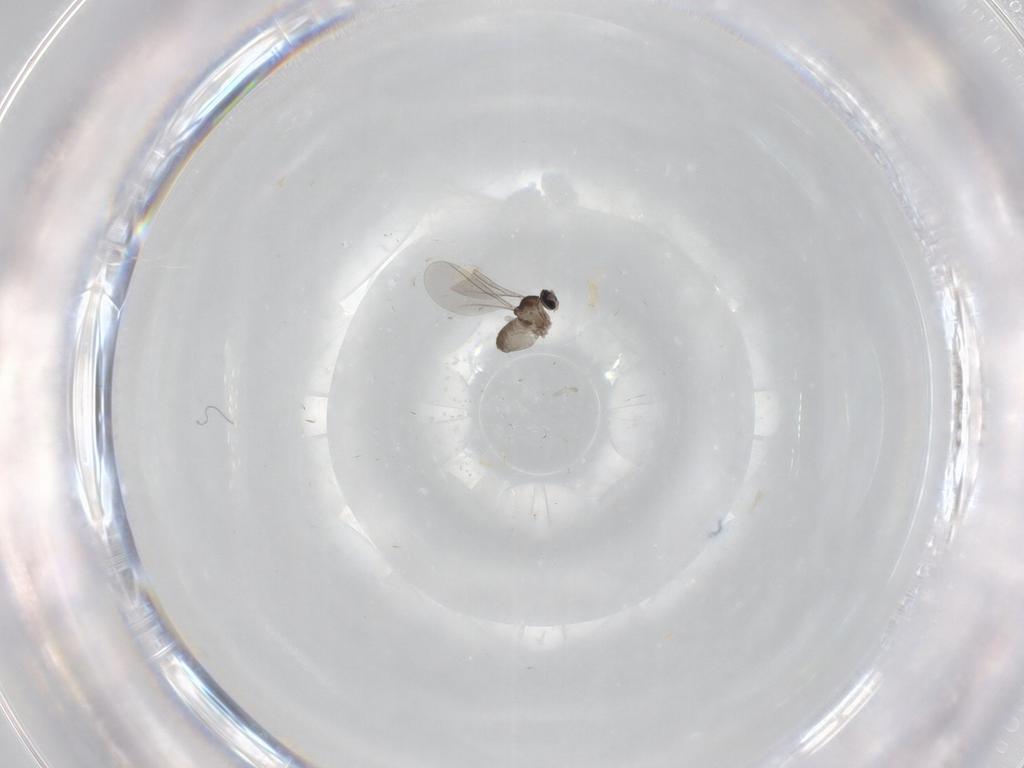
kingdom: Animalia
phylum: Arthropoda
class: Insecta
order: Diptera
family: Cecidomyiidae
